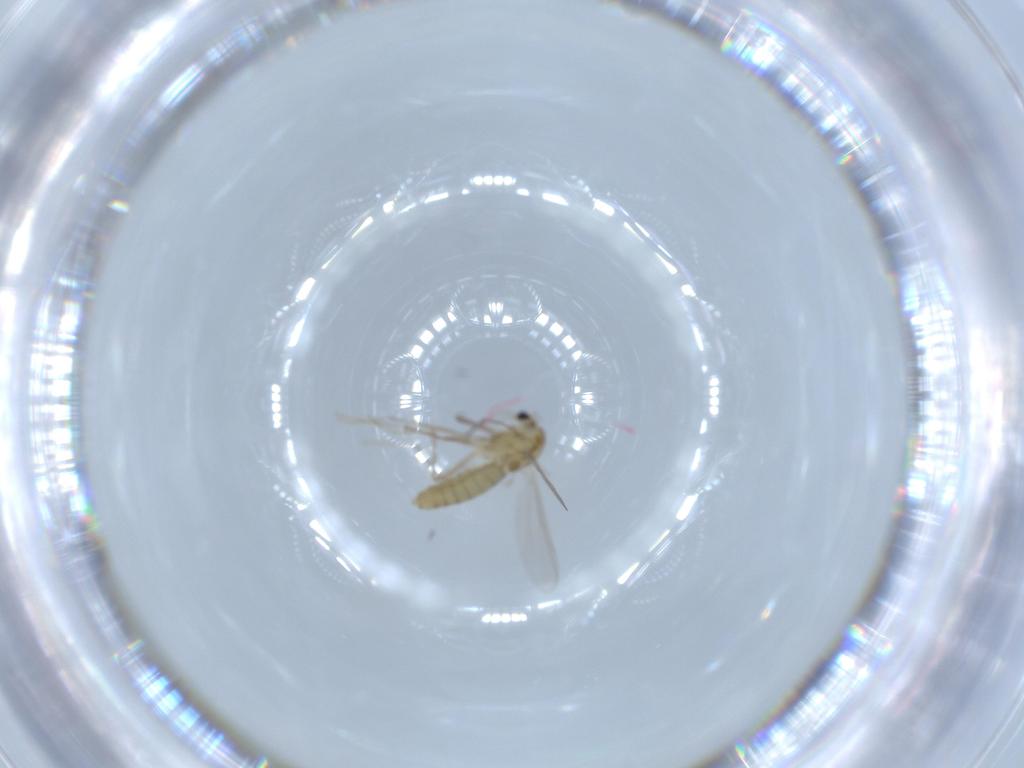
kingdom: Animalia
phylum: Arthropoda
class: Insecta
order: Diptera
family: Chironomidae
